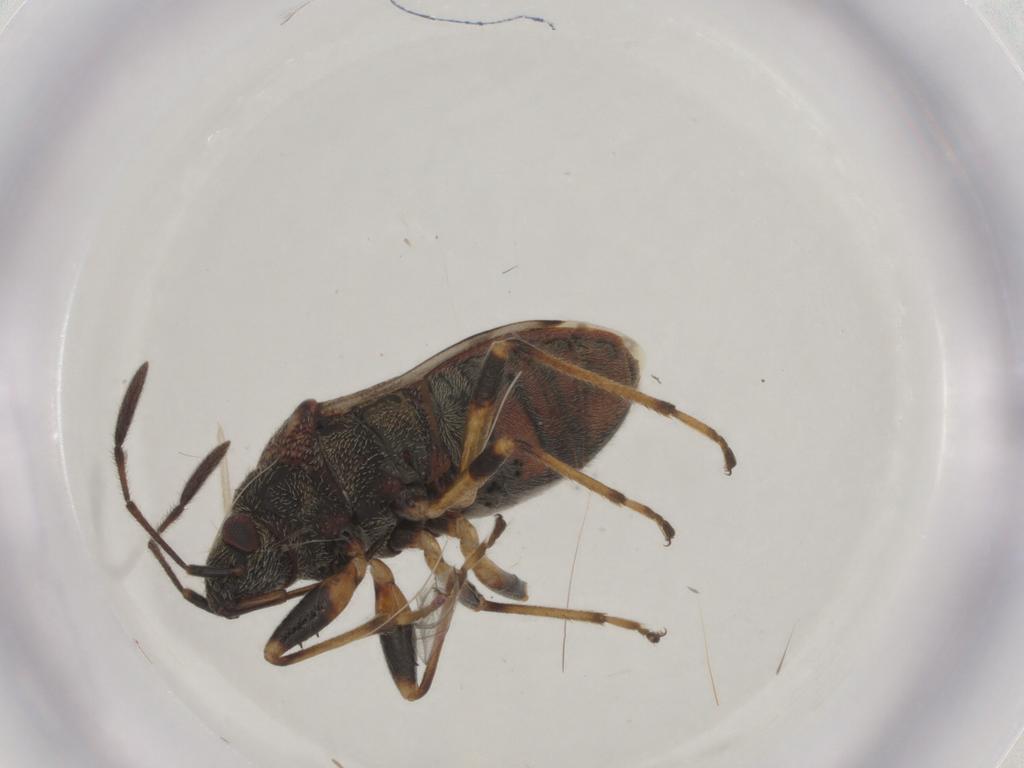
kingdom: Animalia
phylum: Arthropoda
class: Insecta
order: Hemiptera
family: Rhyparochromidae
